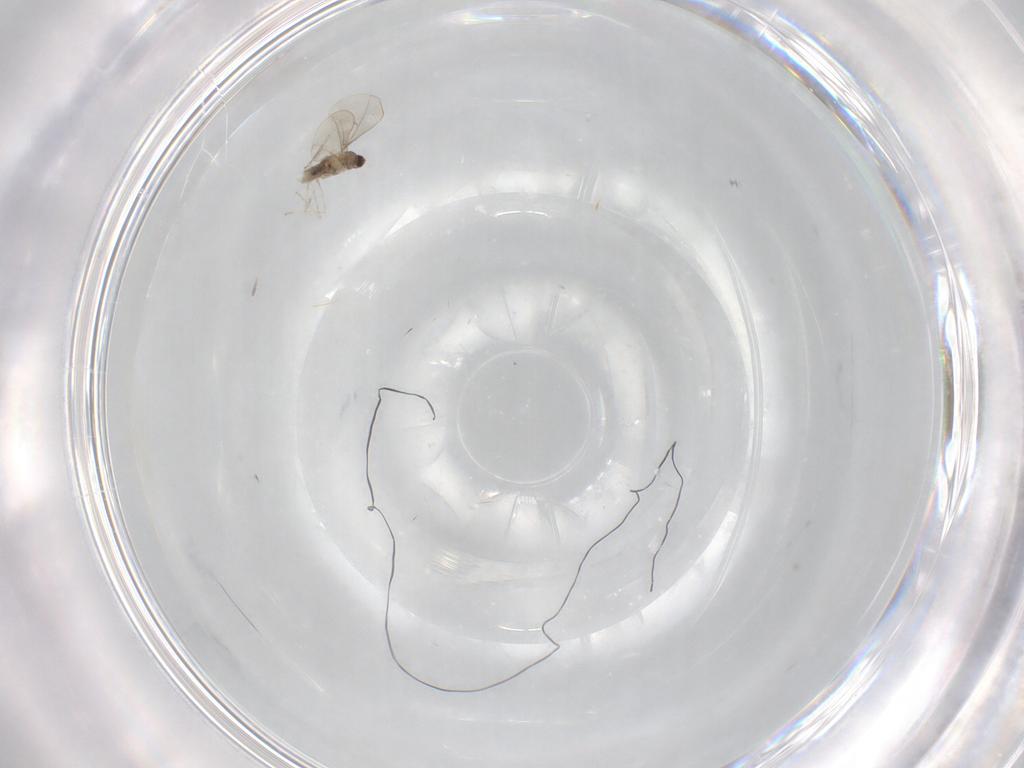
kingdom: Animalia
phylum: Arthropoda
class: Insecta
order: Diptera
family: Cecidomyiidae
